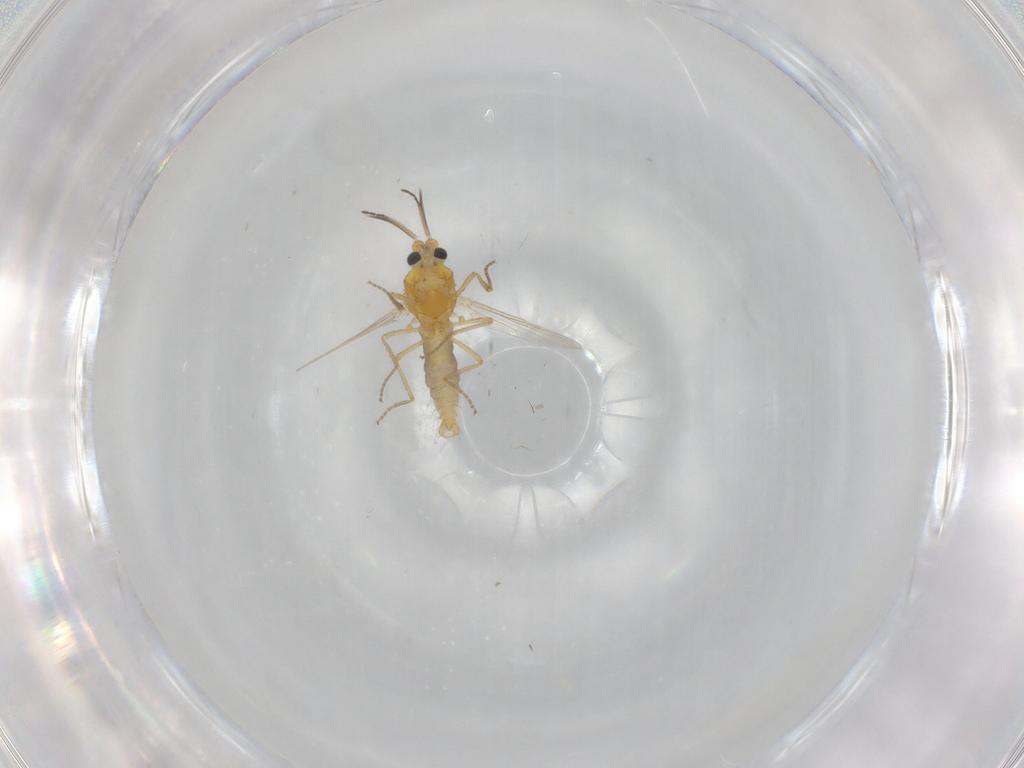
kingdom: Animalia
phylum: Arthropoda
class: Insecta
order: Diptera
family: Ceratopogonidae
